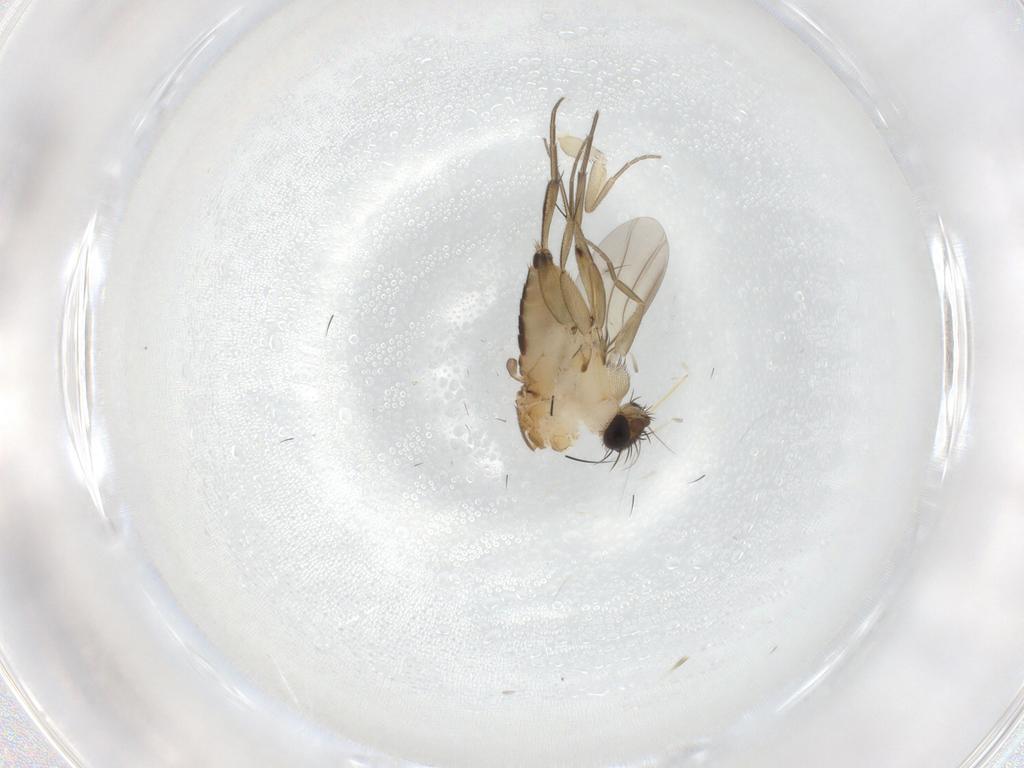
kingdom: Animalia
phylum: Arthropoda
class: Insecta
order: Diptera
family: Phoridae
